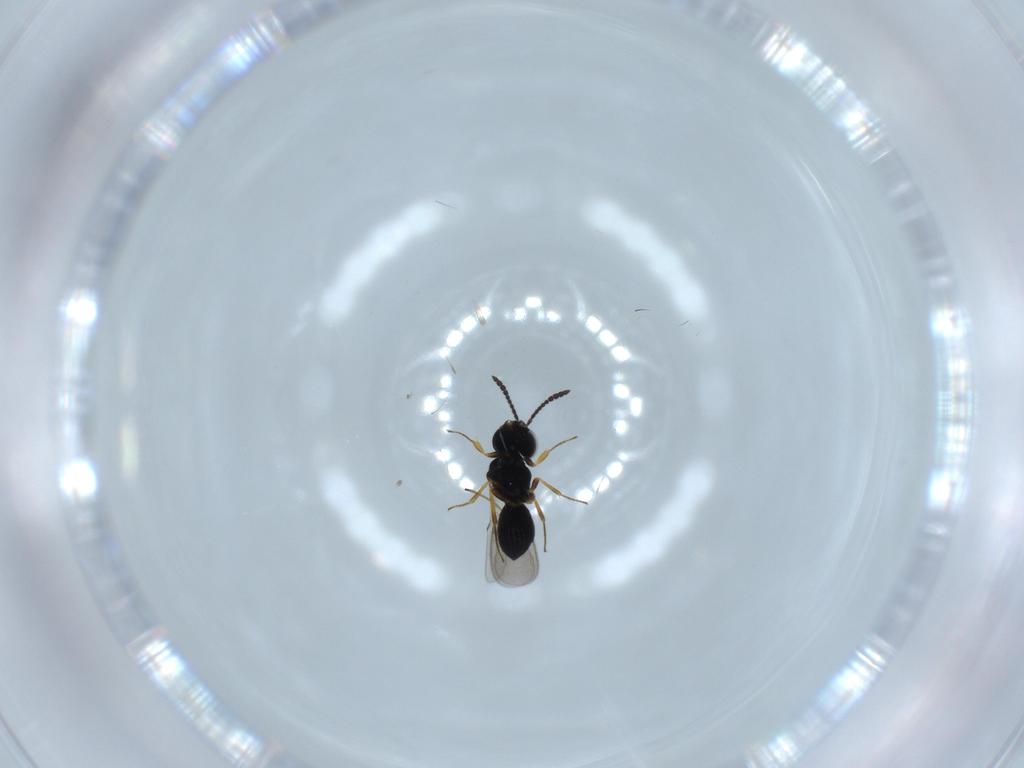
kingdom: Animalia
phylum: Arthropoda
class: Insecta
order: Hymenoptera
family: Scelionidae
